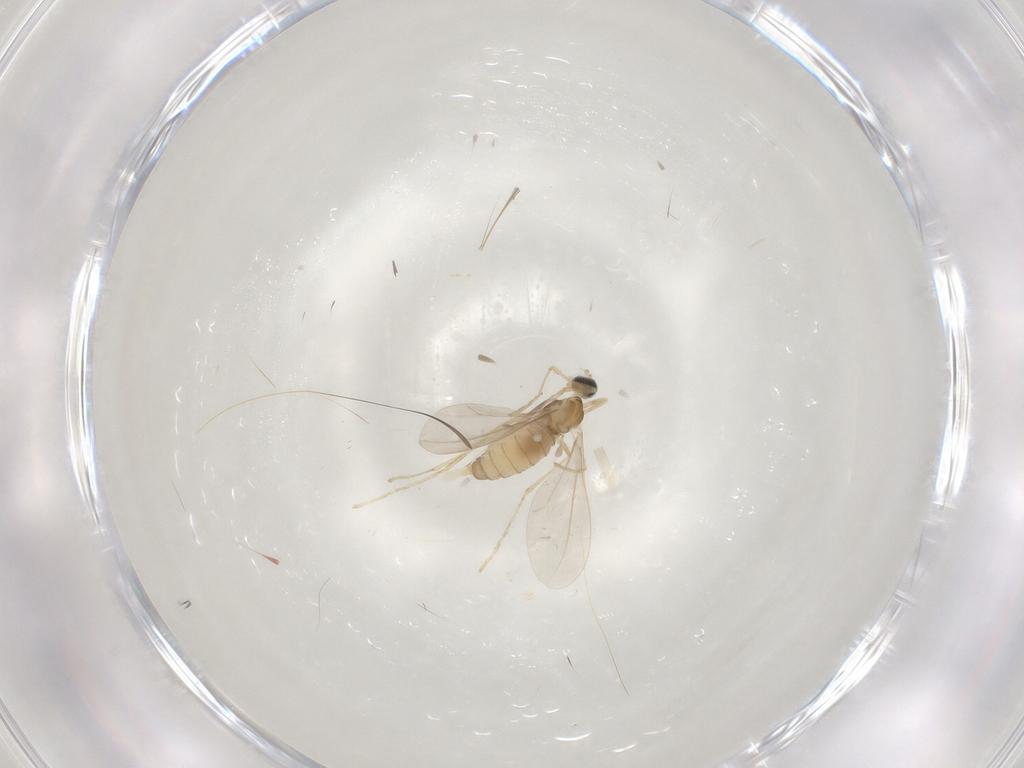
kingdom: Animalia
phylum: Arthropoda
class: Insecta
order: Diptera
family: Cecidomyiidae
